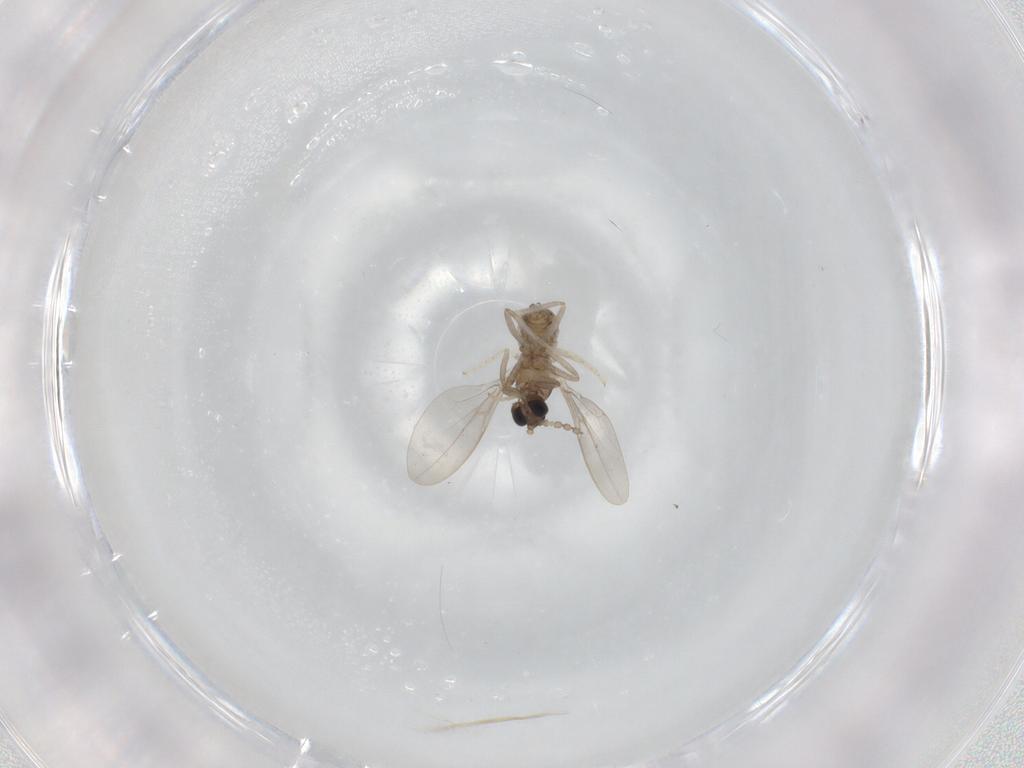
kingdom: Animalia
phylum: Arthropoda
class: Insecta
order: Diptera
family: Cecidomyiidae
